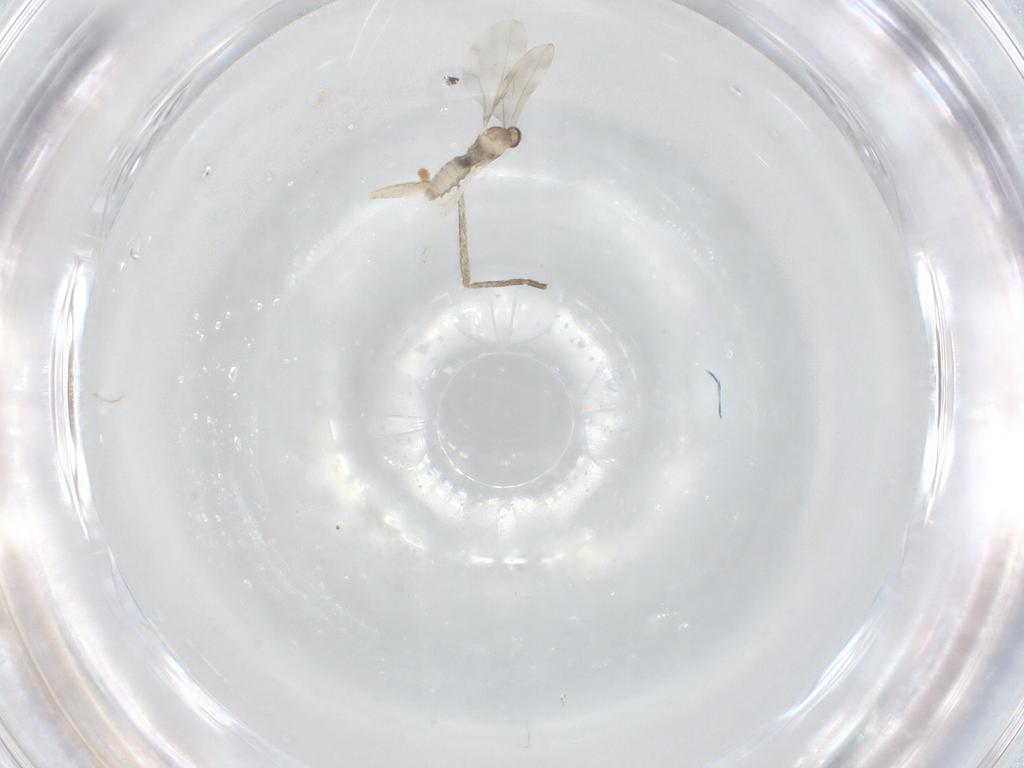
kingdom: Animalia
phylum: Arthropoda
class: Insecta
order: Diptera
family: Cecidomyiidae
